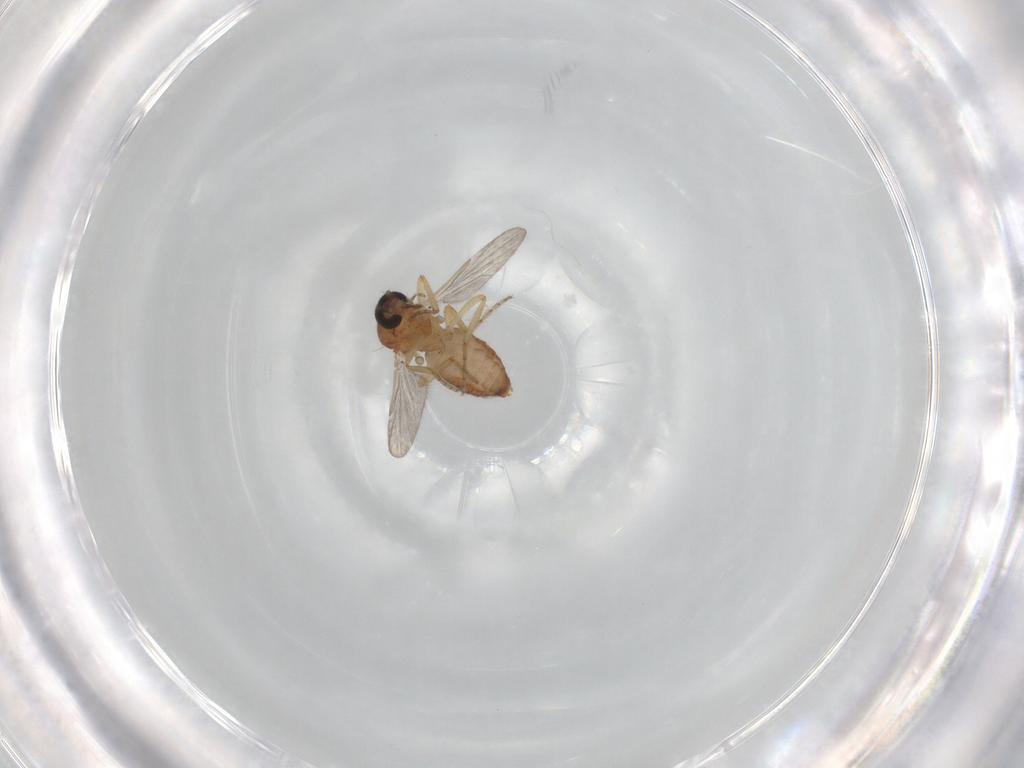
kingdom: Animalia
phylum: Arthropoda
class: Insecta
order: Diptera
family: Ceratopogonidae
